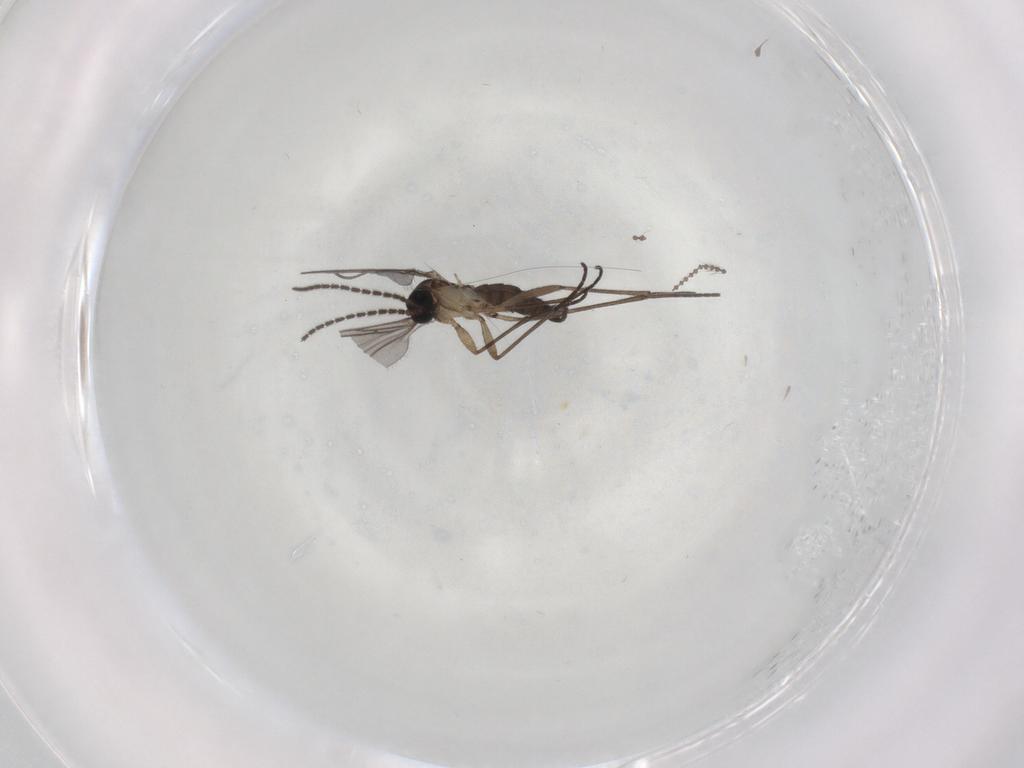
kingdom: Animalia
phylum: Arthropoda
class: Insecta
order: Diptera
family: Sciaridae
